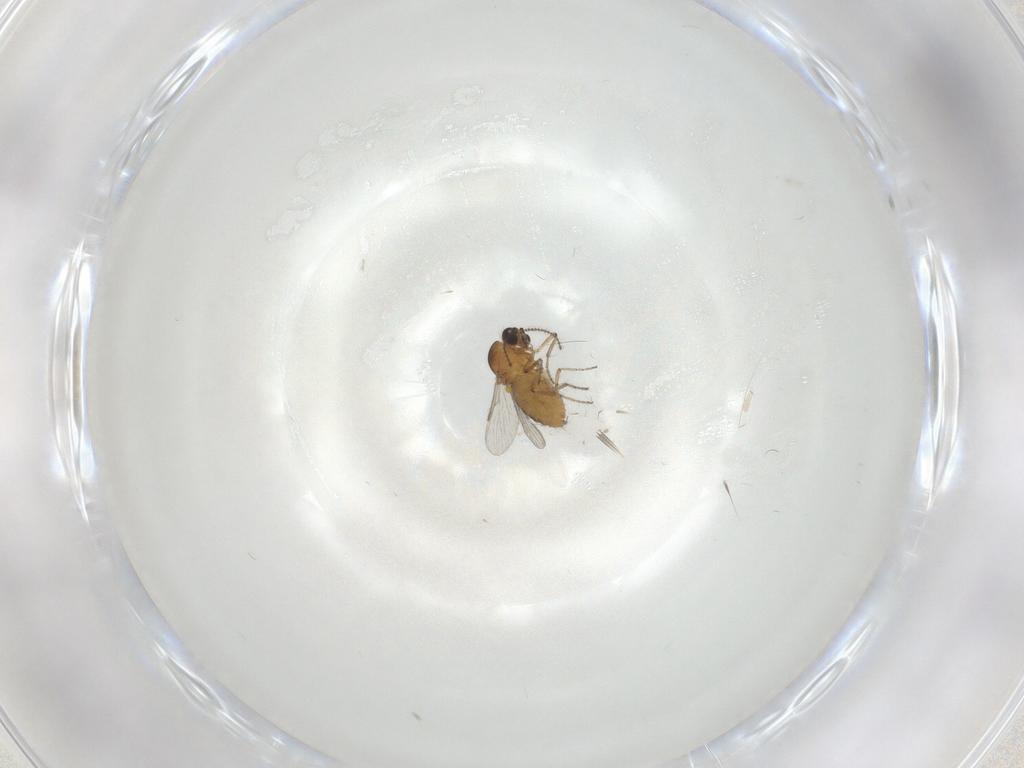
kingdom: Animalia
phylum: Arthropoda
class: Insecta
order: Diptera
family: Ceratopogonidae
